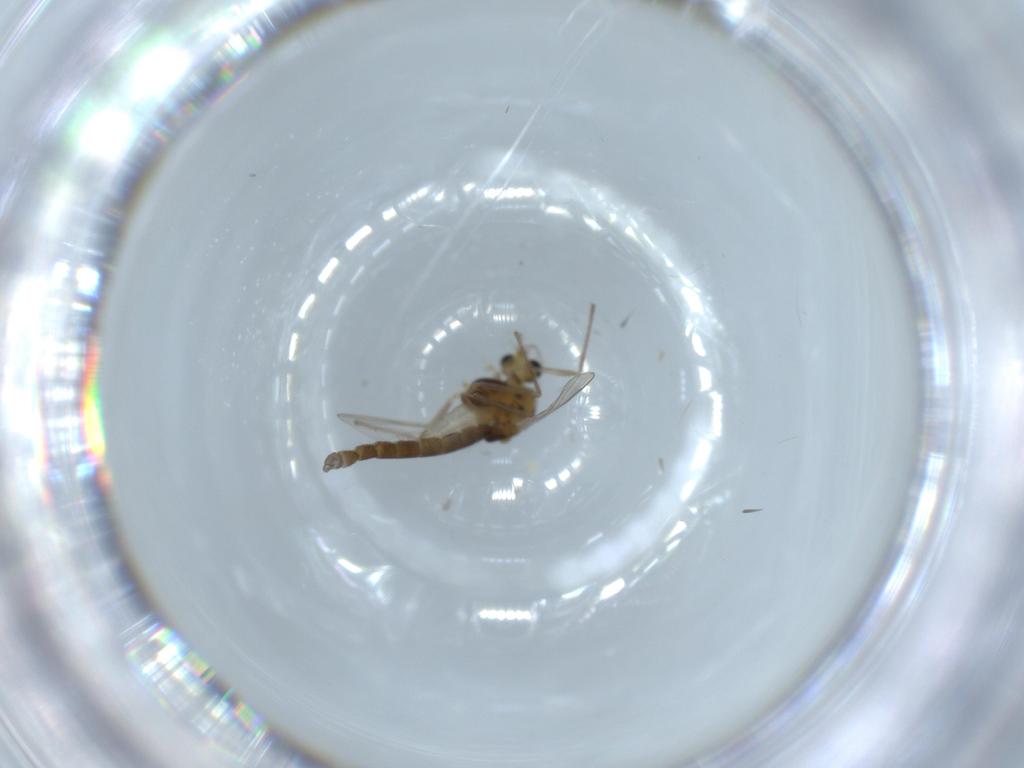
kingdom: Animalia
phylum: Arthropoda
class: Insecta
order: Diptera
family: Chironomidae
